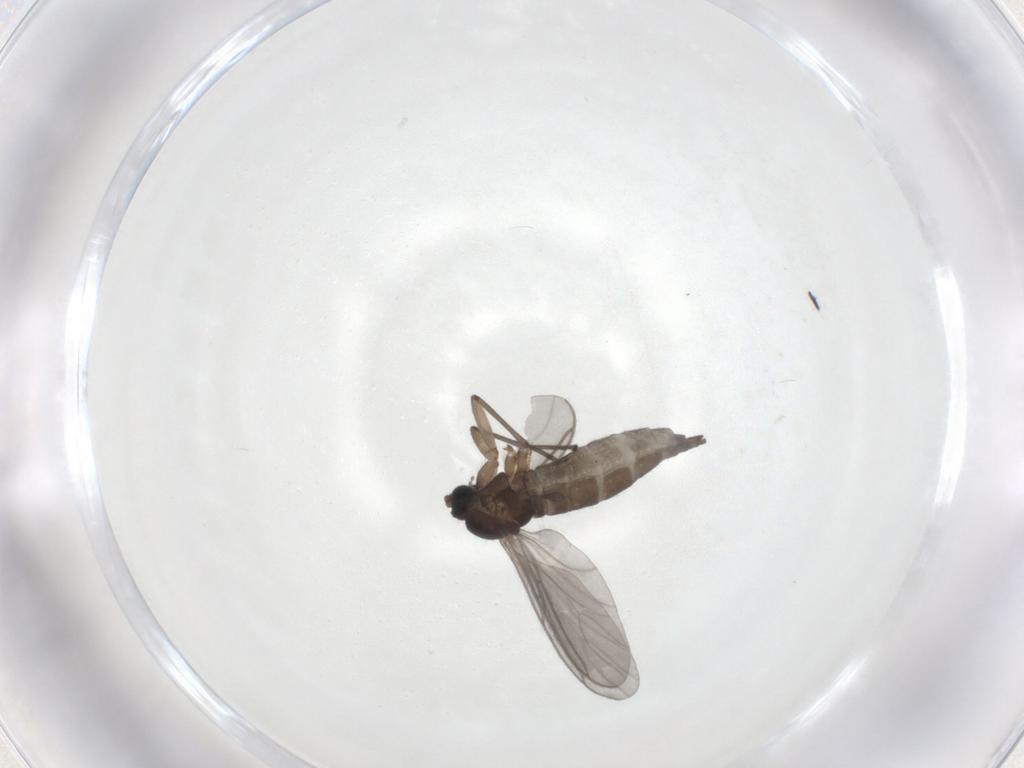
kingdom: Animalia
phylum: Arthropoda
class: Insecta
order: Diptera
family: Sciaridae
